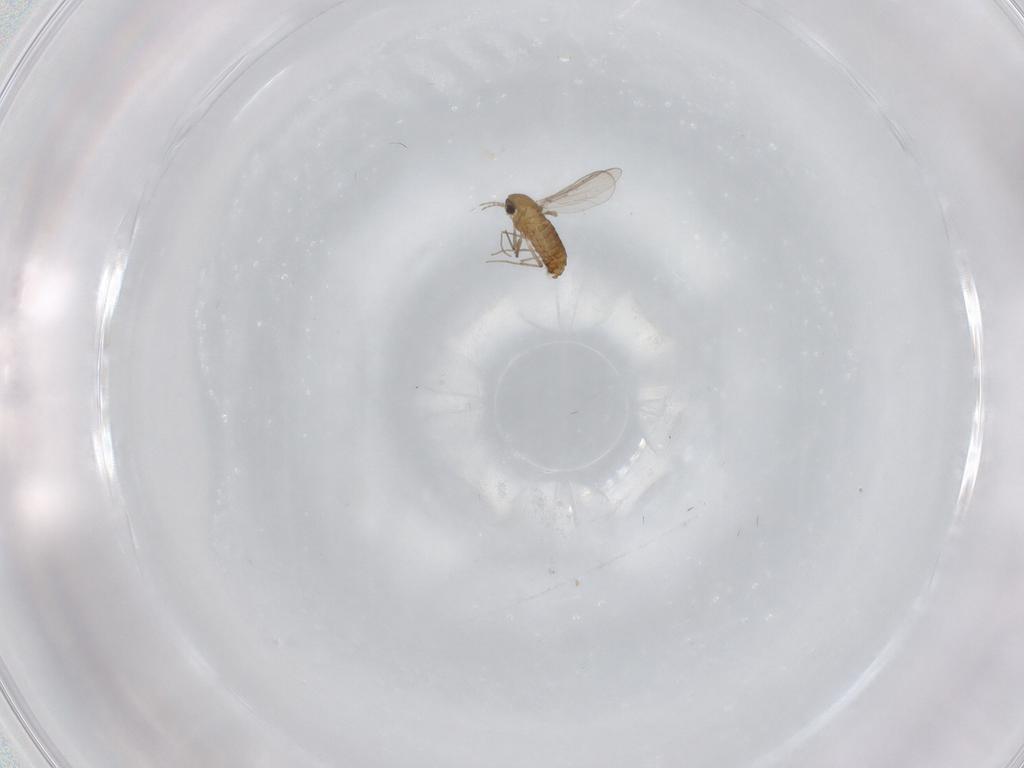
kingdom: Animalia
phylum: Arthropoda
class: Insecta
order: Diptera
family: Chironomidae
